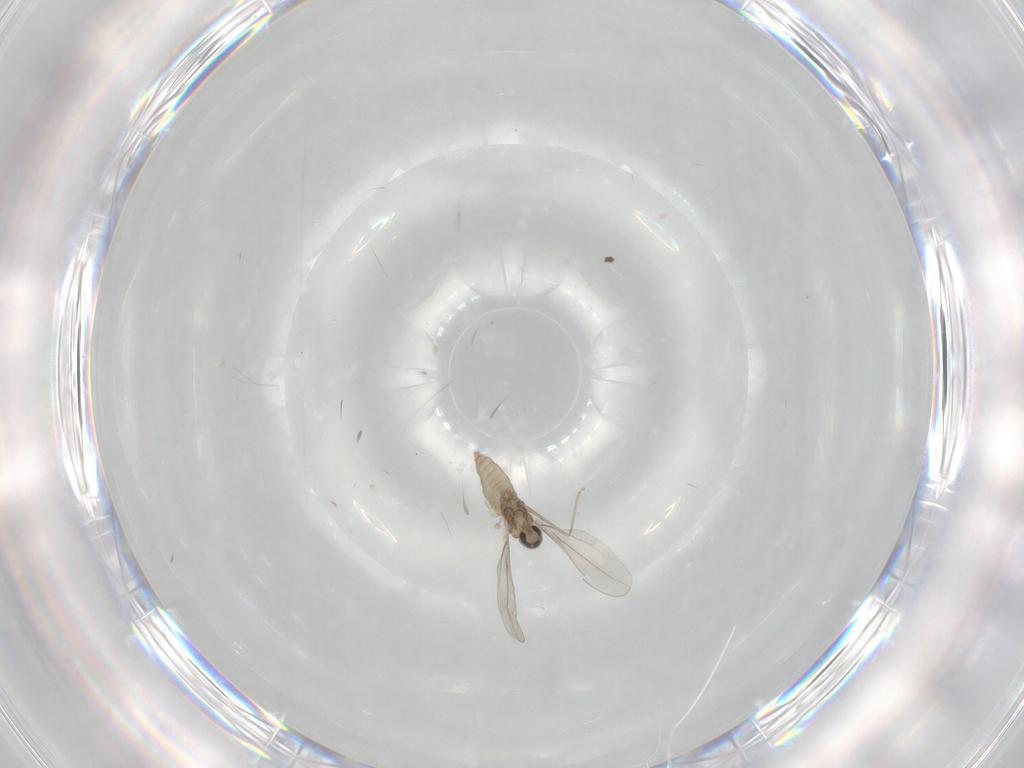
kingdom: Animalia
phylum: Arthropoda
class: Insecta
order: Diptera
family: Cecidomyiidae
